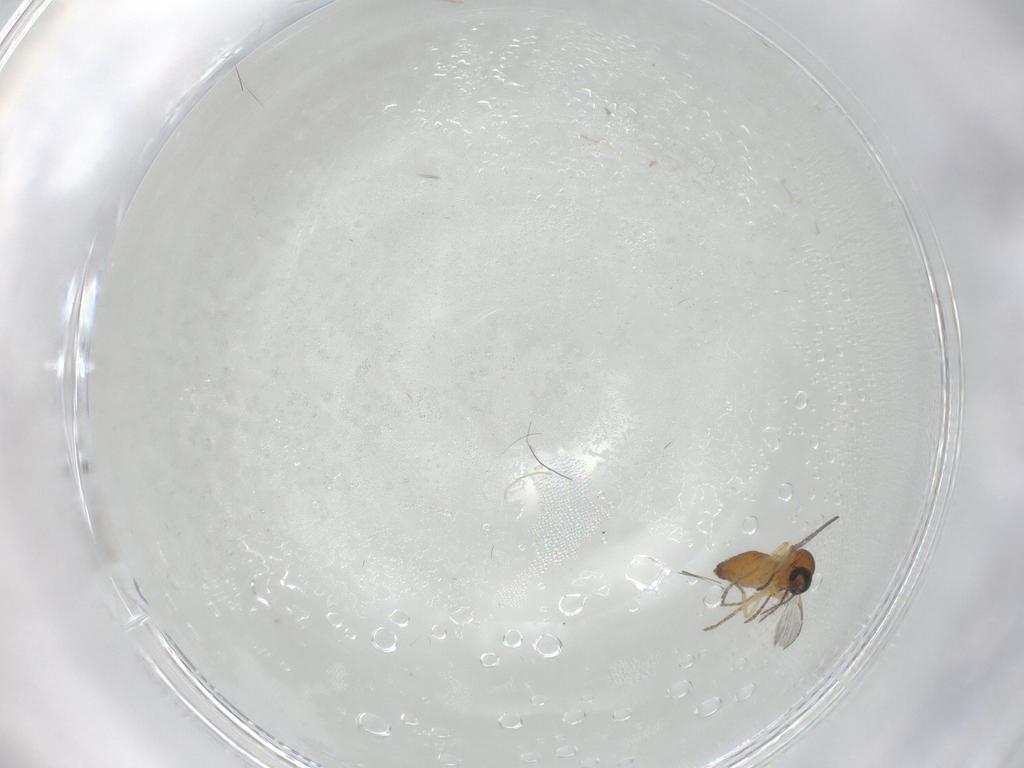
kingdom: Animalia
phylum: Arthropoda
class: Insecta
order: Diptera
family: Ceratopogonidae
